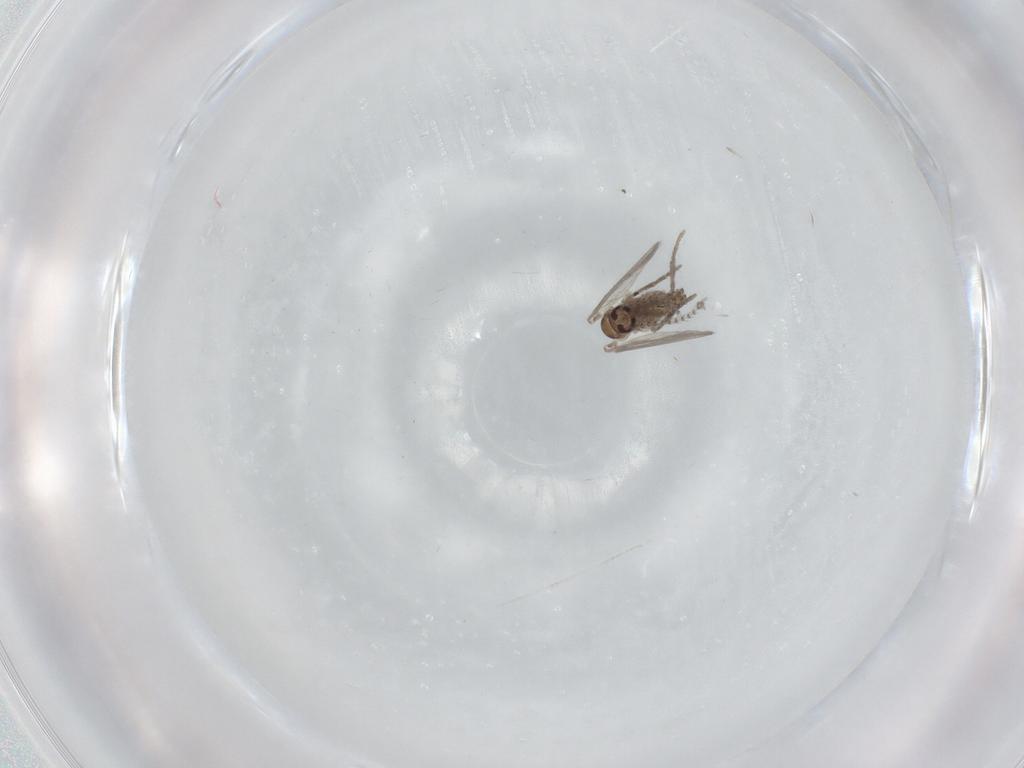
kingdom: Animalia
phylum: Arthropoda
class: Insecta
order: Diptera
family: Psychodidae
